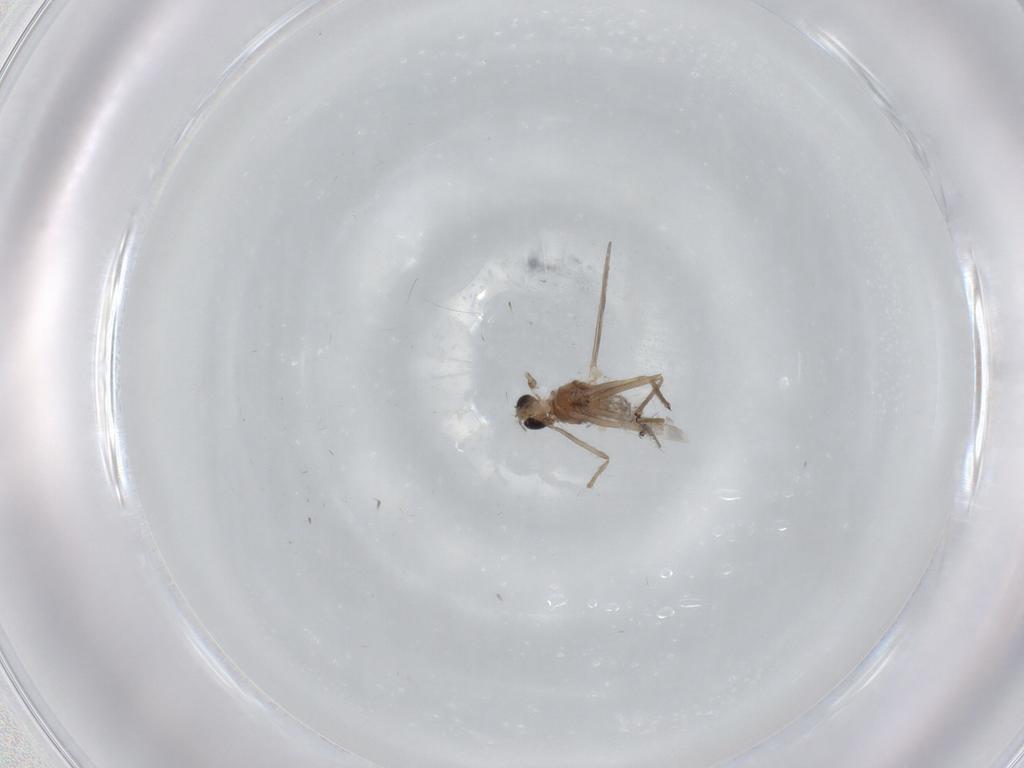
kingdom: Animalia
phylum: Arthropoda
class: Insecta
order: Diptera
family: Chironomidae
